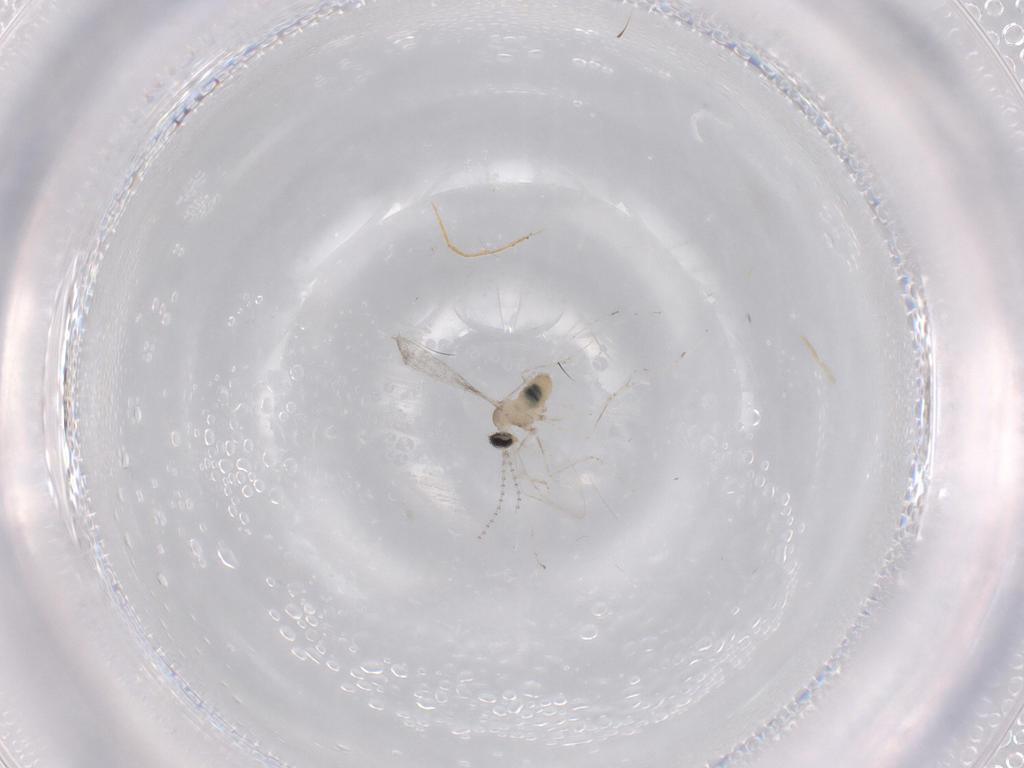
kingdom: Animalia
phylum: Arthropoda
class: Insecta
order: Diptera
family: Cecidomyiidae
